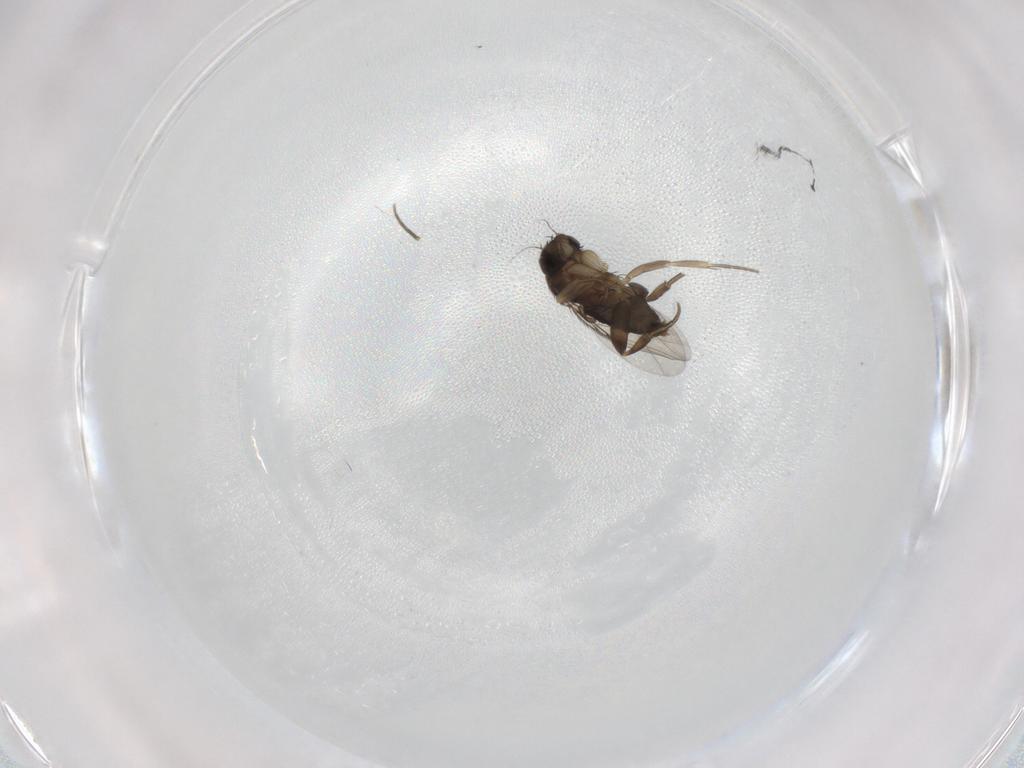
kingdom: Animalia
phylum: Arthropoda
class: Insecta
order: Diptera
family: Phoridae
